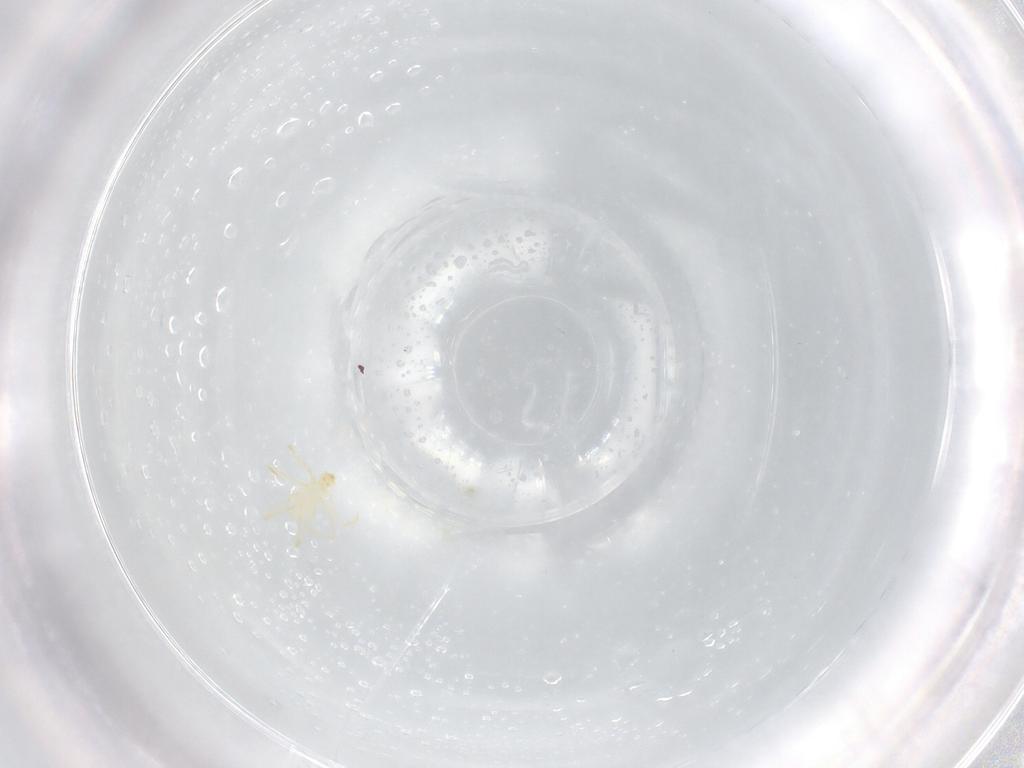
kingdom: Animalia
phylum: Arthropoda
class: Arachnida
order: Trombidiformes
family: Erythraeidae
